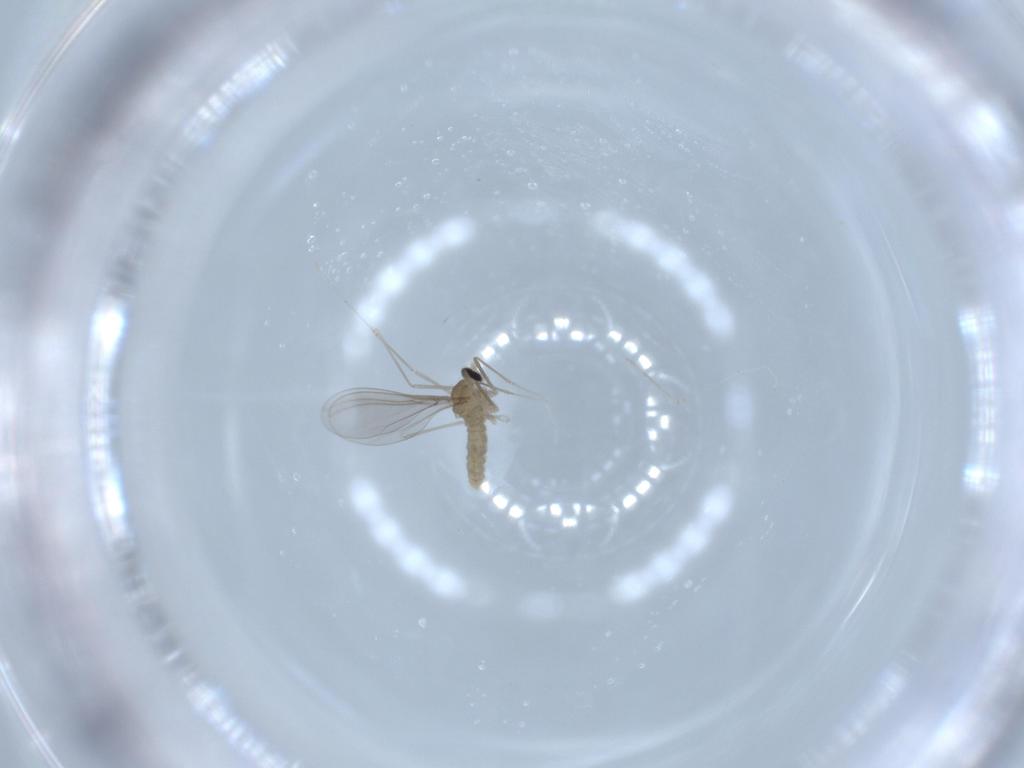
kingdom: Animalia
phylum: Arthropoda
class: Insecta
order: Diptera
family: Cecidomyiidae
